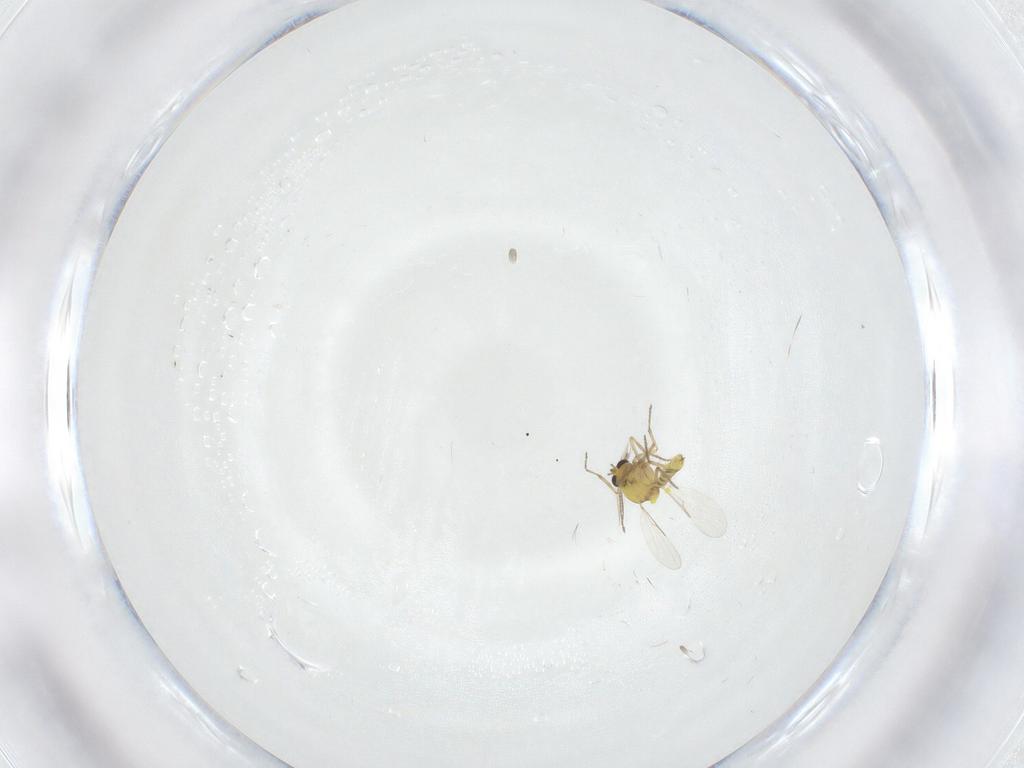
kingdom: Animalia
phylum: Arthropoda
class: Insecta
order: Diptera
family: Ceratopogonidae
